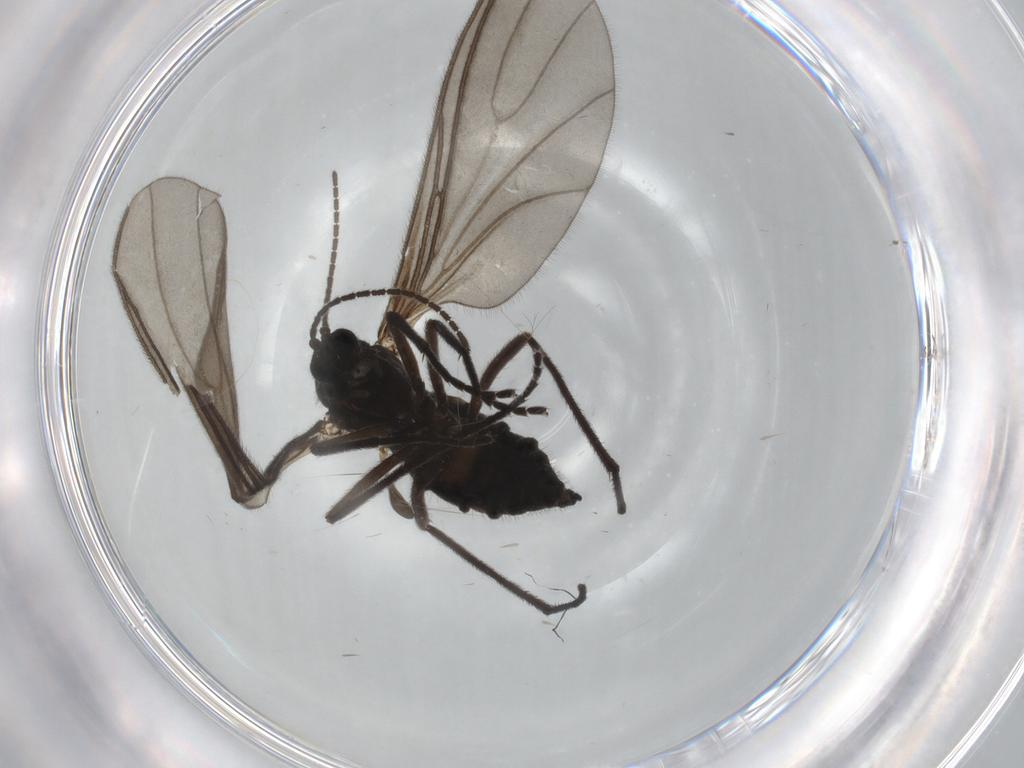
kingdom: Animalia
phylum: Arthropoda
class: Insecta
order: Diptera
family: Sciaridae
